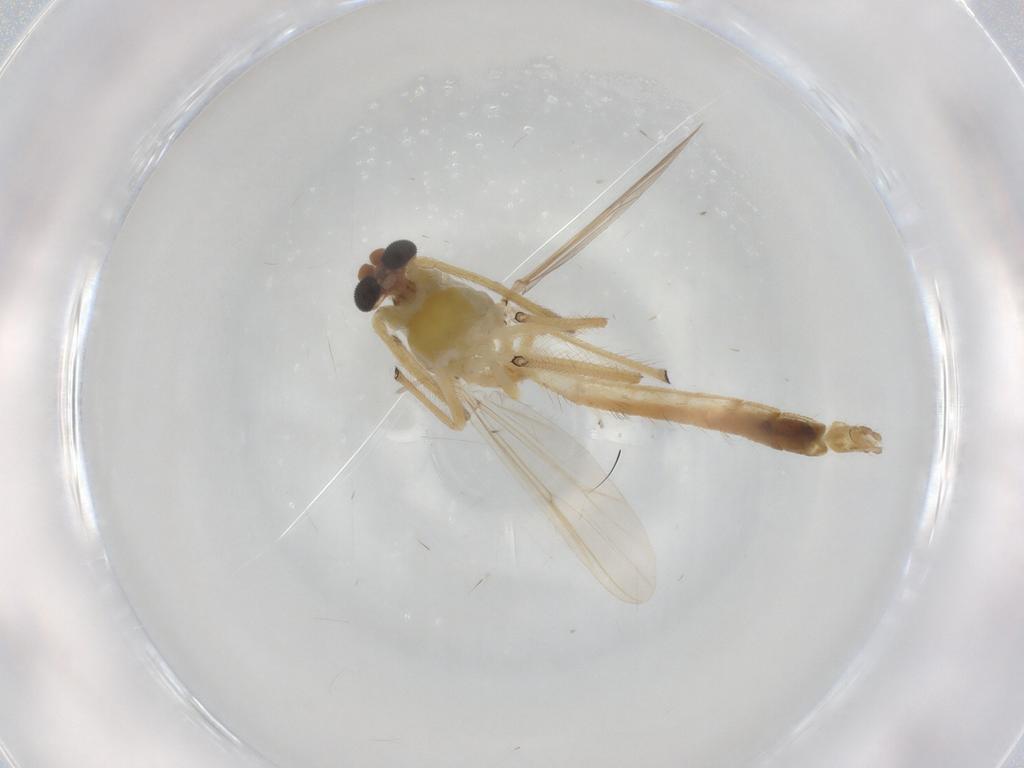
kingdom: Animalia
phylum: Arthropoda
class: Insecta
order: Diptera
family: Chironomidae
